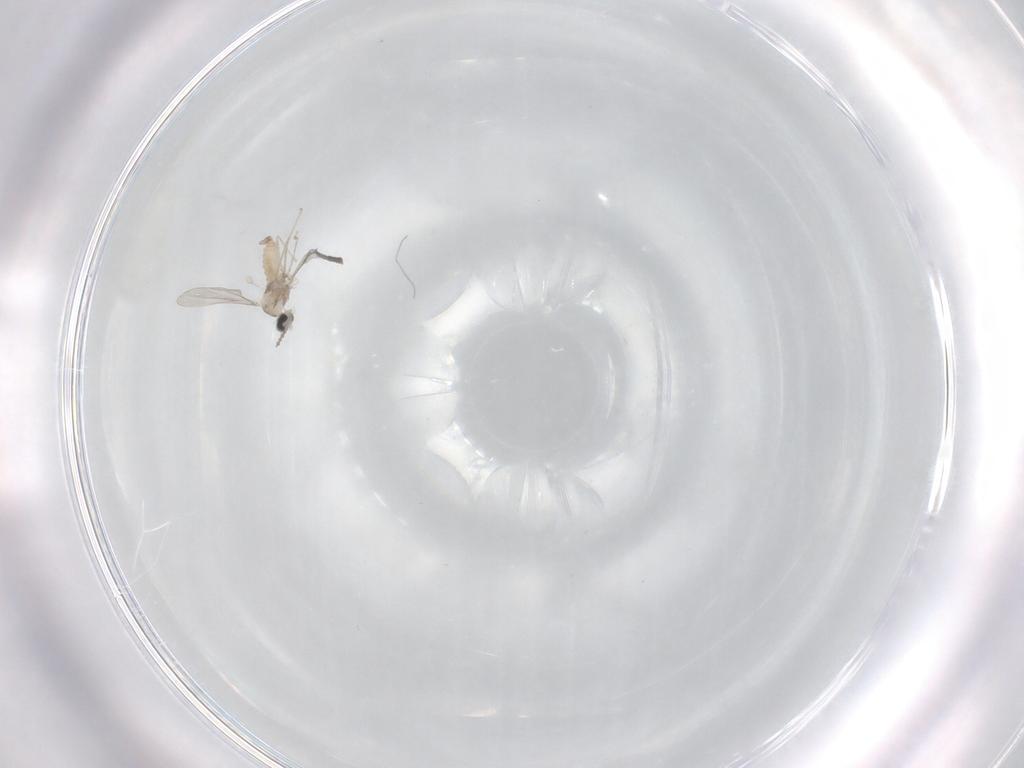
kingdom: Animalia
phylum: Arthropoda
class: Insecta
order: Diptera
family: Cecidomyiidae
